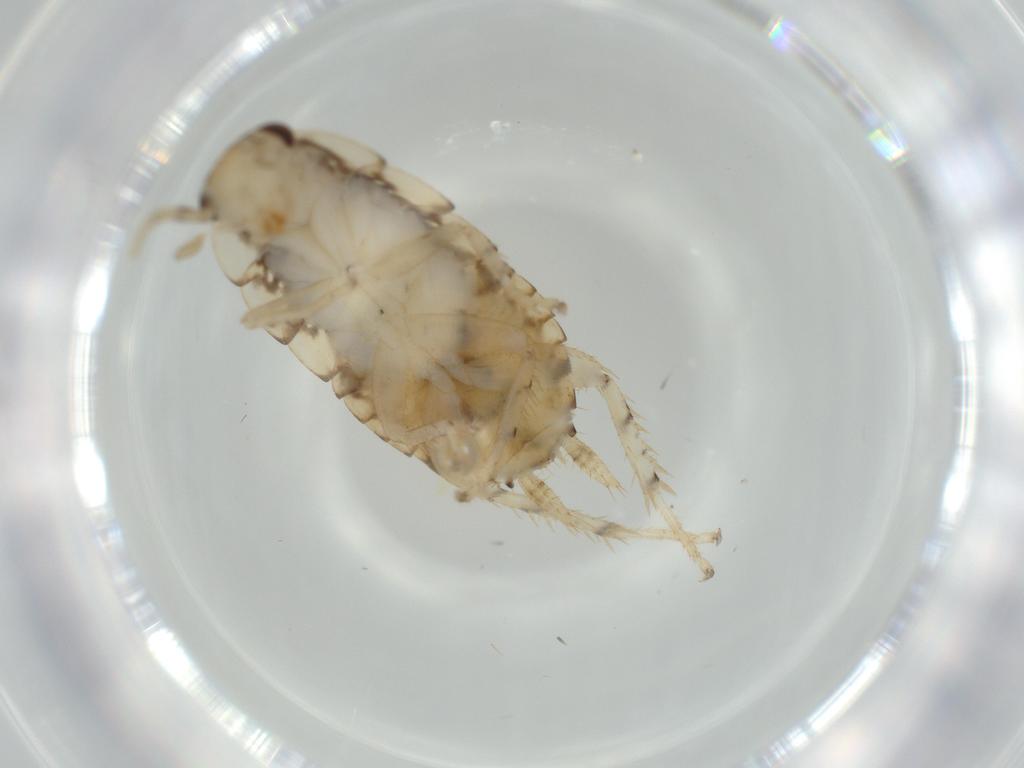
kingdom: Animalia
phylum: Arthropoda
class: Insecta
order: Blattodea
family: Ectobiidae
